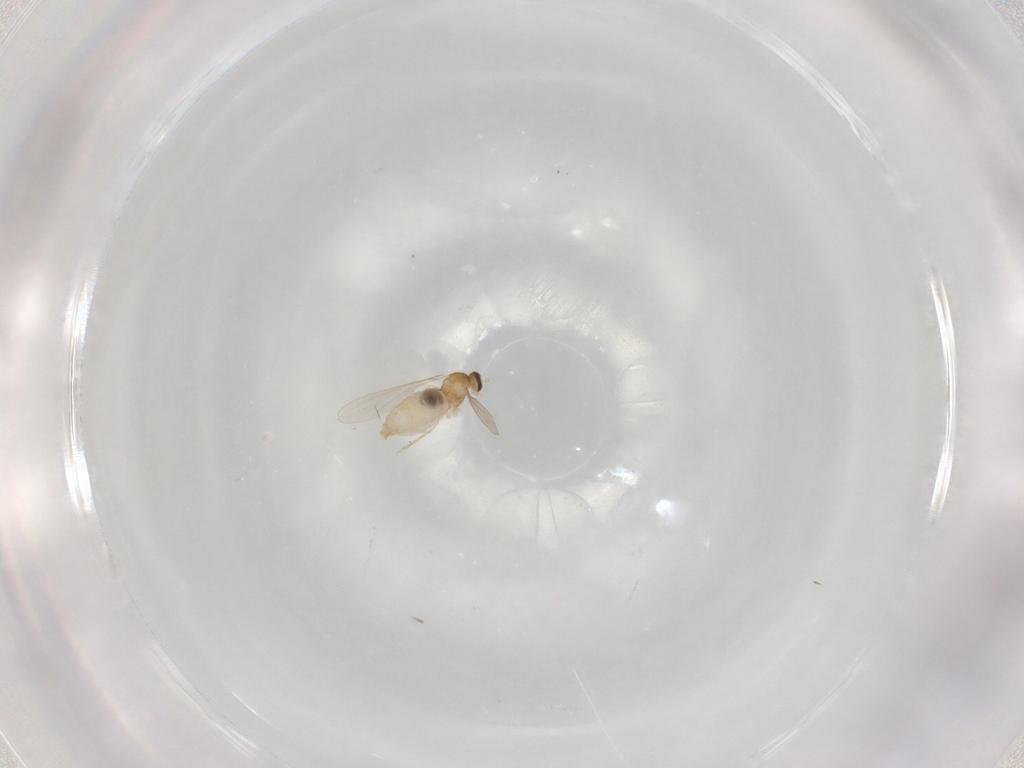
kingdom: Animalia
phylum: Arthropoda
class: Insecta
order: Diptera
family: Cecidomyiidae
